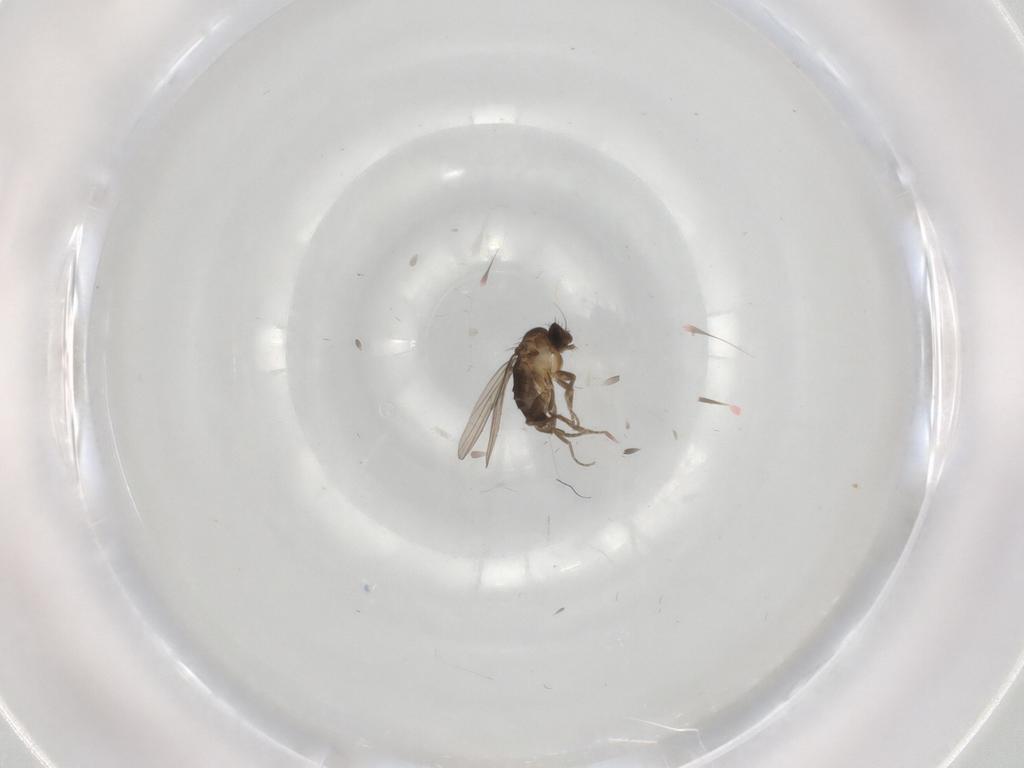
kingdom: Animalia
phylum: Arthropoda
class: Insecta
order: Diptera
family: Phoridae
